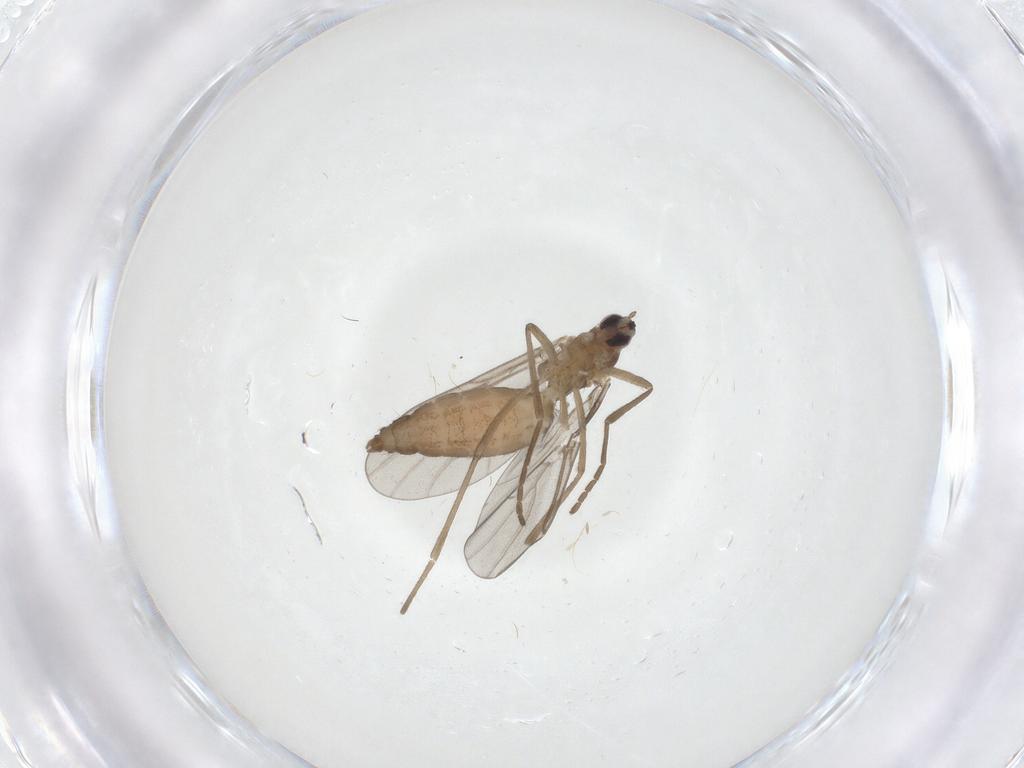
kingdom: Animalia
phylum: Arthropoda
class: Insecta
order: Diptera
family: Cecidomyiidae
